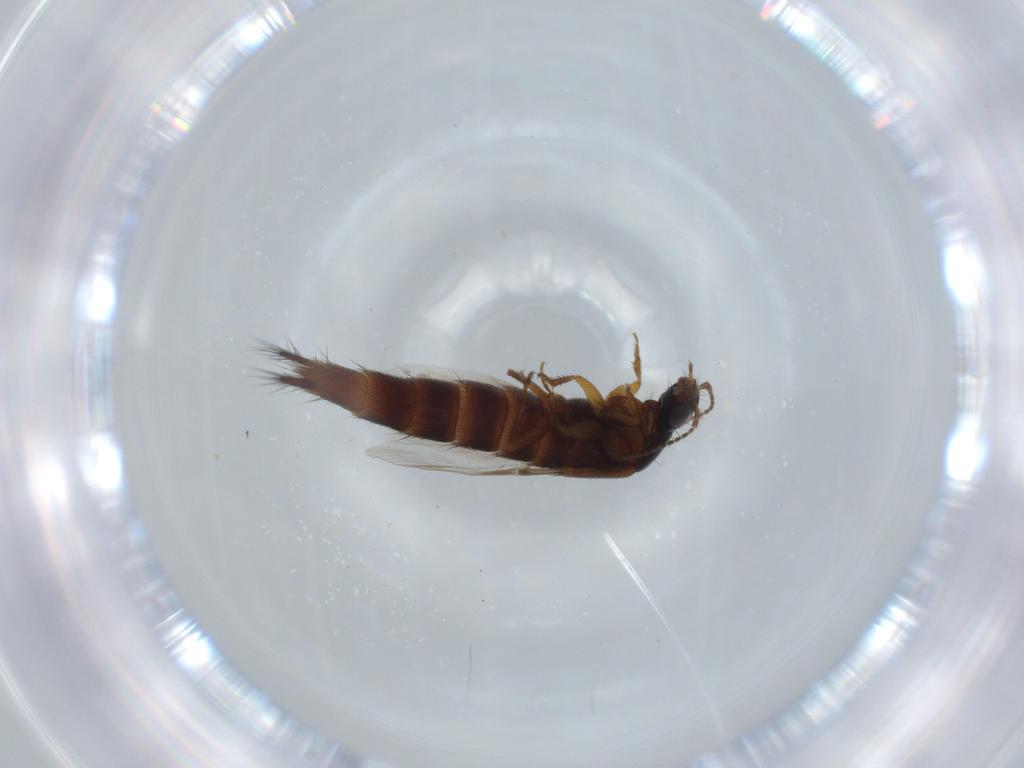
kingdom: Animalia
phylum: Arthropoda
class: Insecta
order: Coleoptera
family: Staphylinidae
